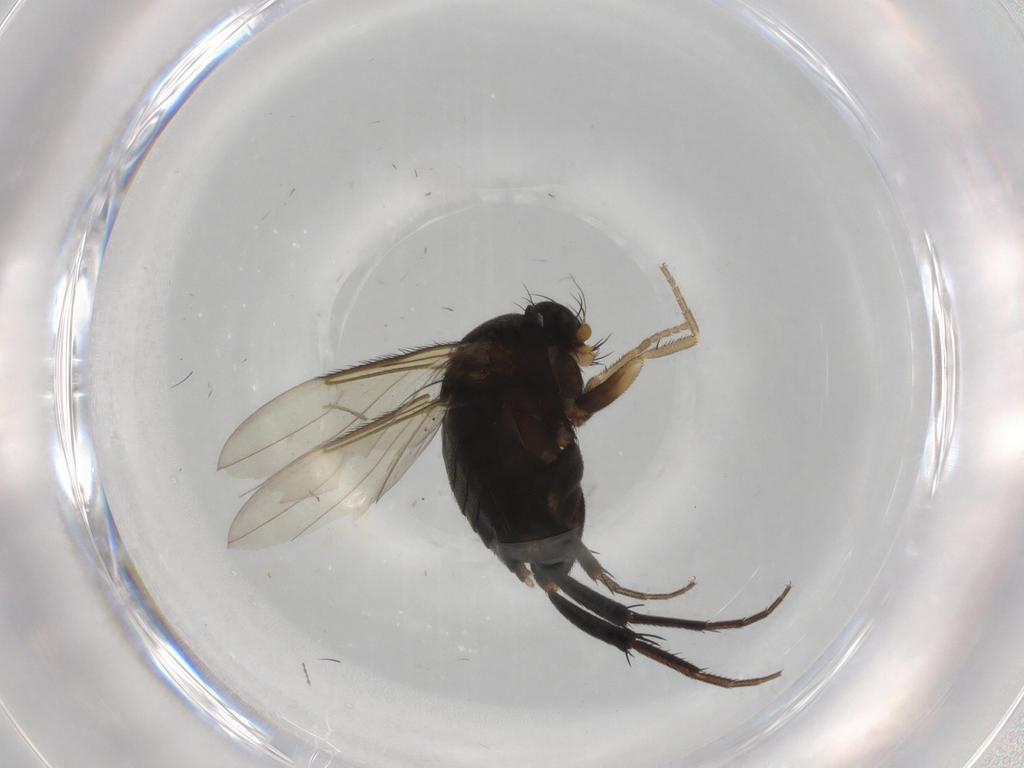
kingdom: Animalia
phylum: Arthropoda
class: Insecta
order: Diptera
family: Phoridae
